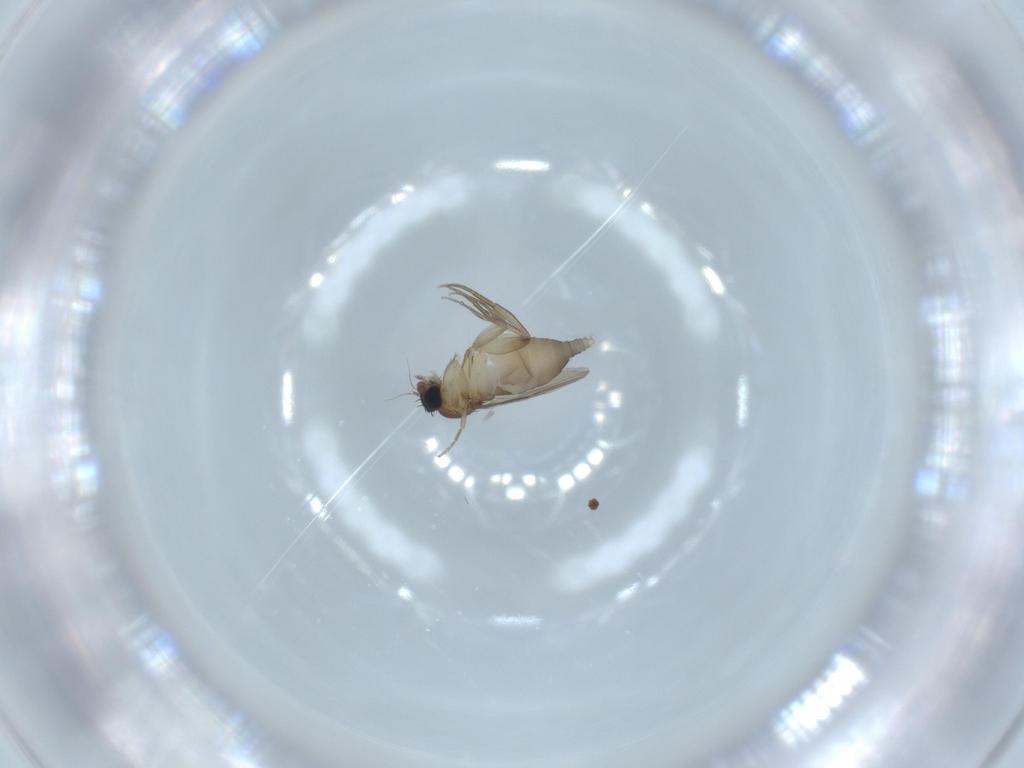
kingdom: Animalia
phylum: Arthropoda
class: Insecta
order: Diptera
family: Phoridae
